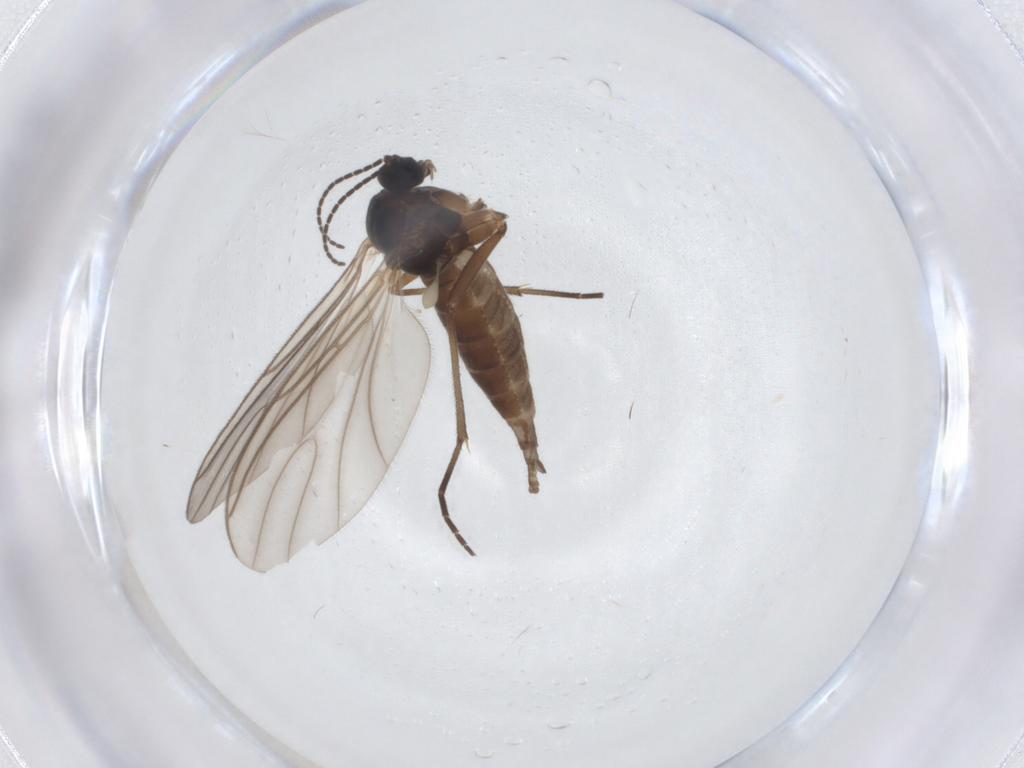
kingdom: Animalia
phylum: Arthropoda
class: Insecta
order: Diptera
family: Sciaridae
